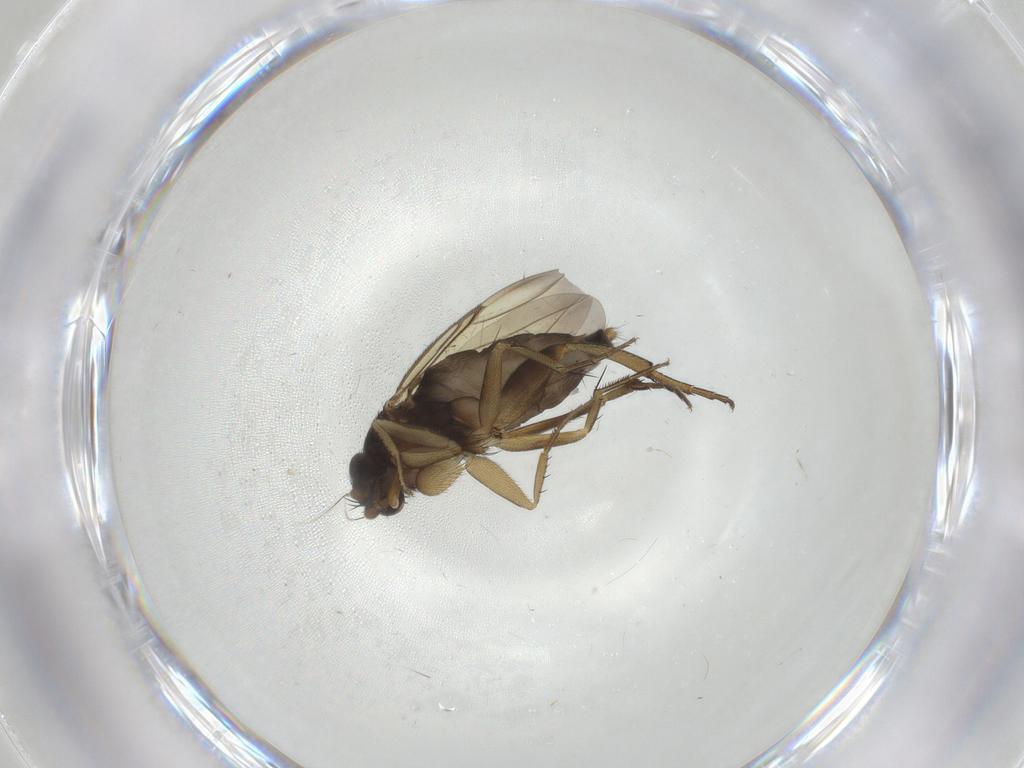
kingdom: Animalia
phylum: Arthropoda
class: Insecta
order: Diptera
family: Phoridae
